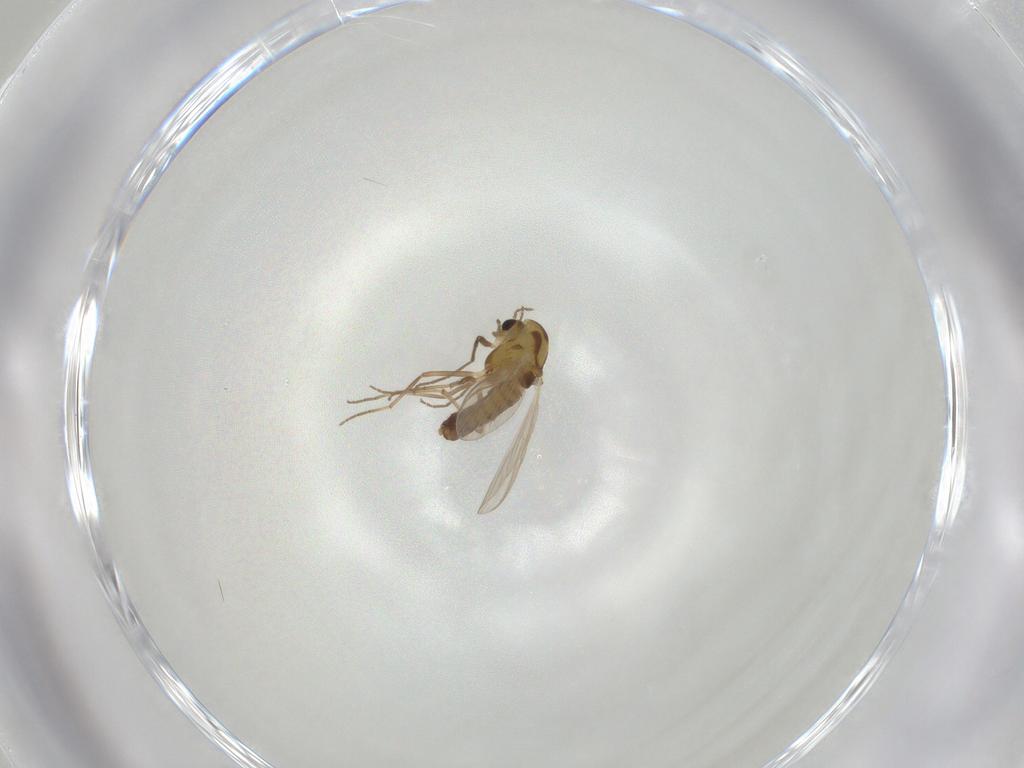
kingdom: Animalia
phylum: Arthropoda
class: Insecta
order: Diptera
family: Chironomidae
